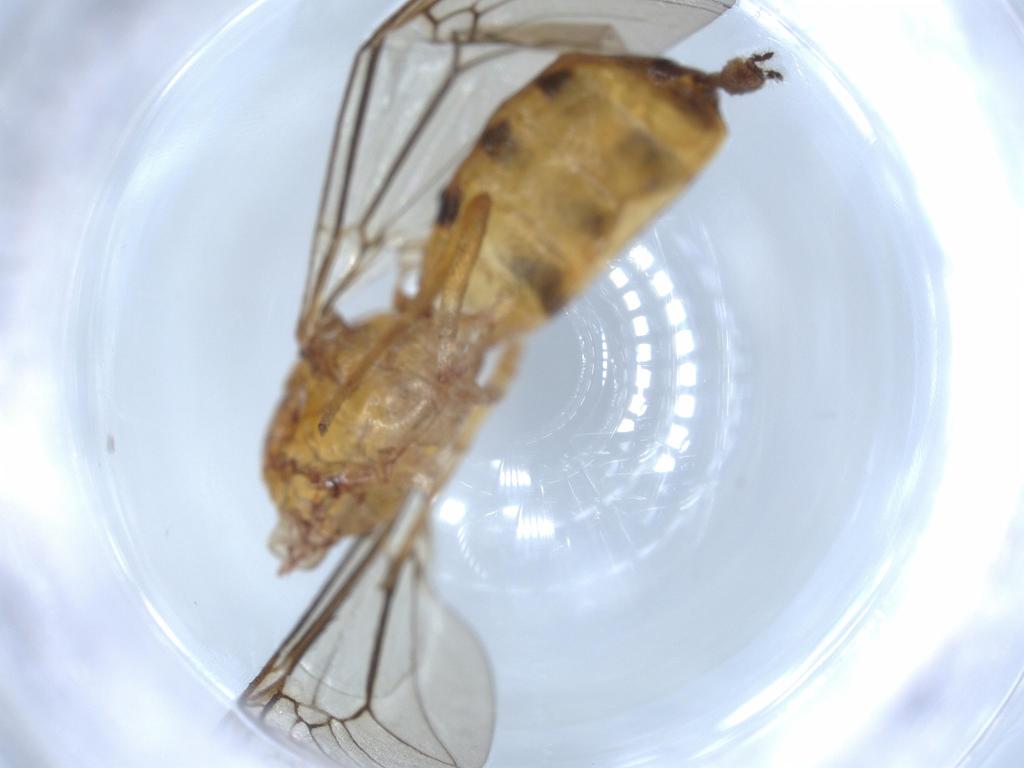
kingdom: Animalia
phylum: Arthropoda
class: Insecta
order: Diptera
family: Stratiomyidae
